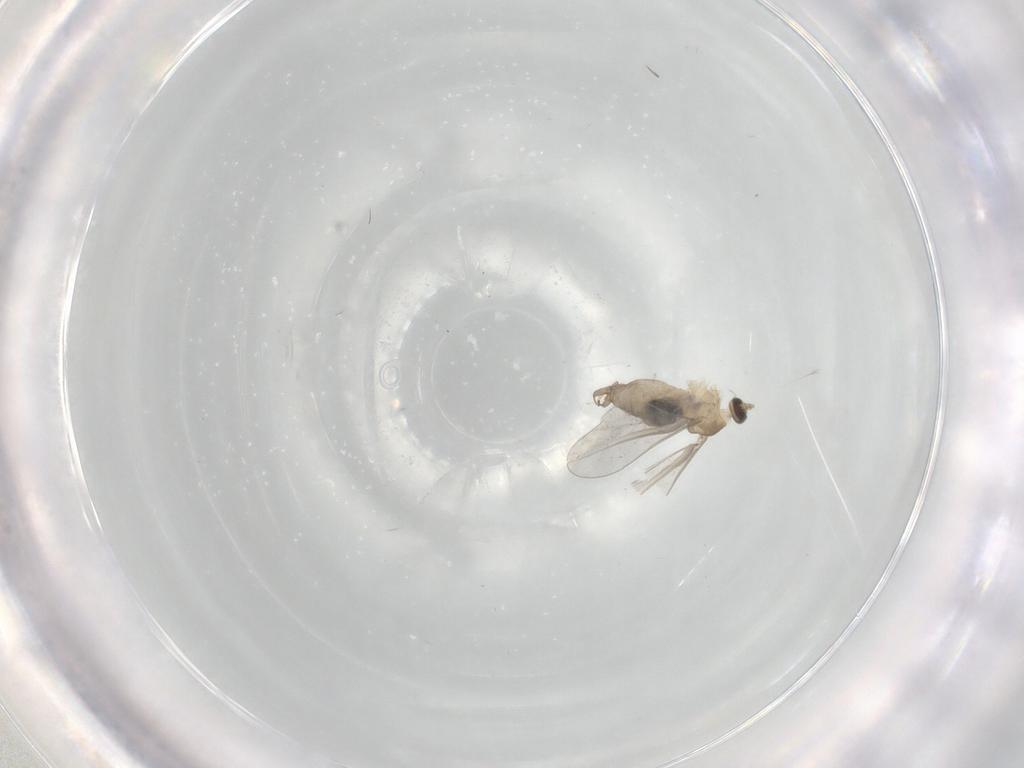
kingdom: Animalia
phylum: Arthropoda
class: Insecta
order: Diptera
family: Cecidomyiidae
